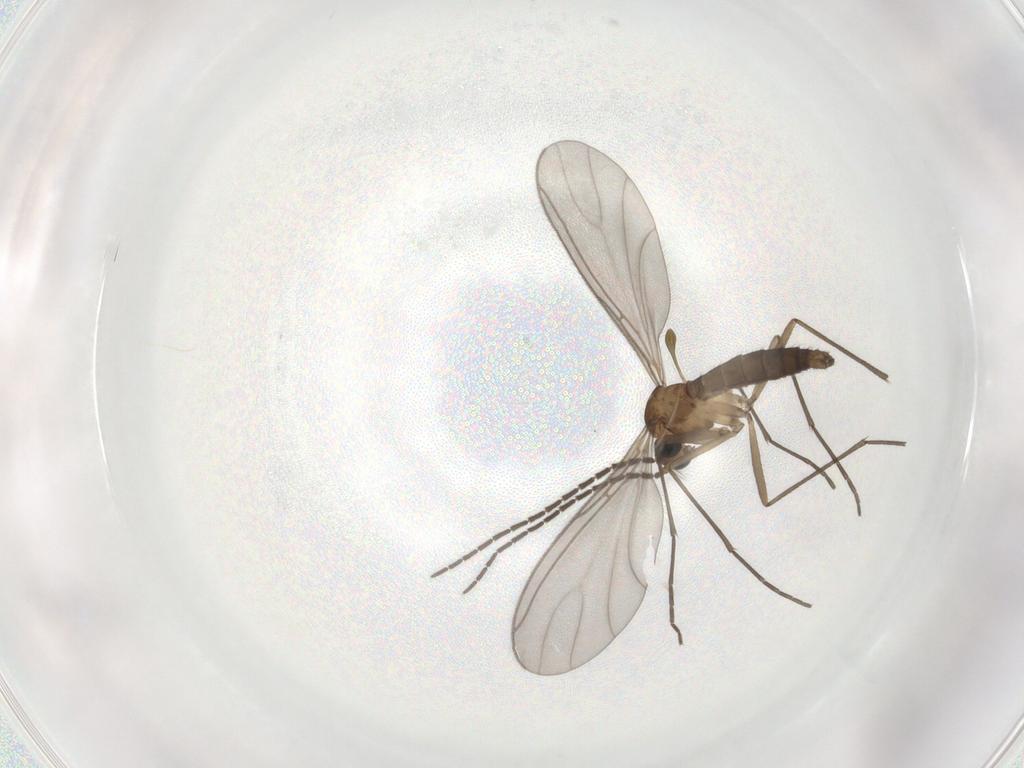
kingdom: Animalia
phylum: Arthropoda
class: Insecta
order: Diptera
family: Sciaridae
